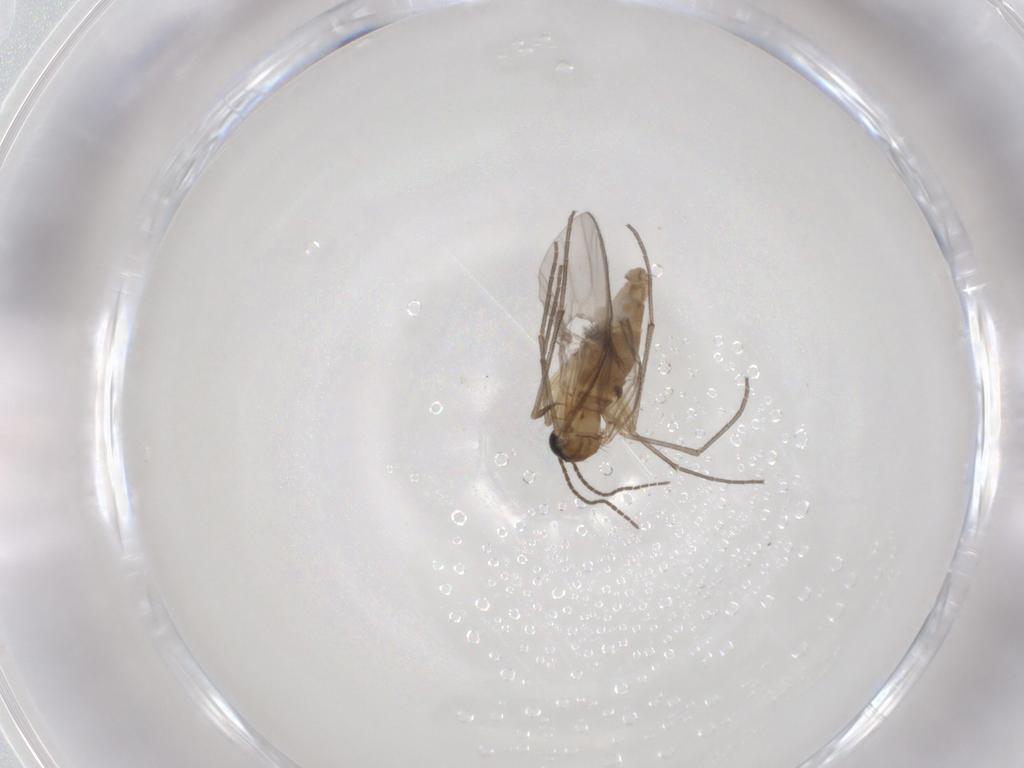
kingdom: Animalia
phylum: Arthropoda
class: Insecta
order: Diptera
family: Sciaridae
